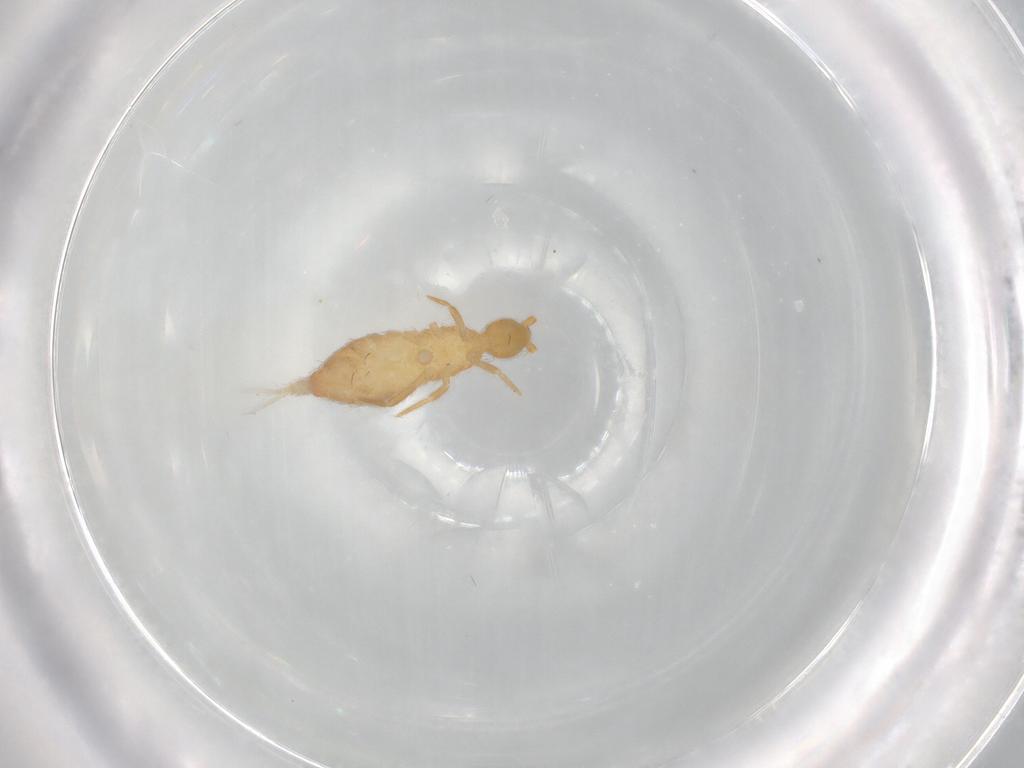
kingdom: Animalia
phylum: Arthropoda
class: Collembola
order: Entomobryomorpha
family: Entomobryidae
